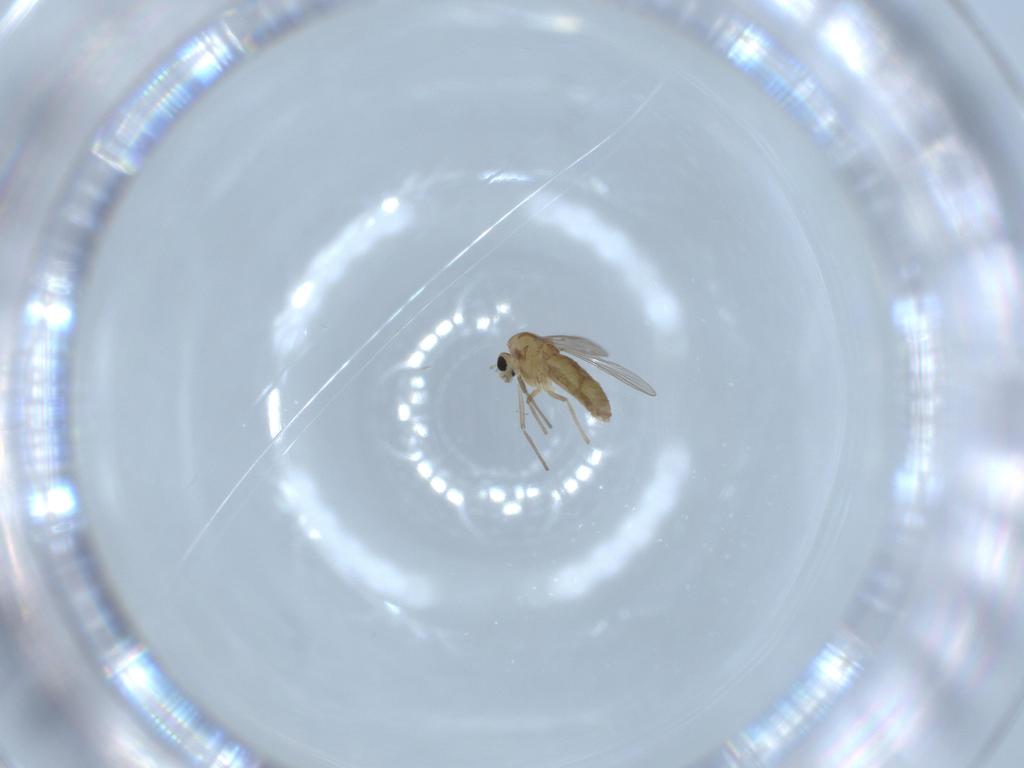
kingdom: Animalia
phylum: Arthropoda
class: Insecta
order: Diptera
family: Chironomidae
